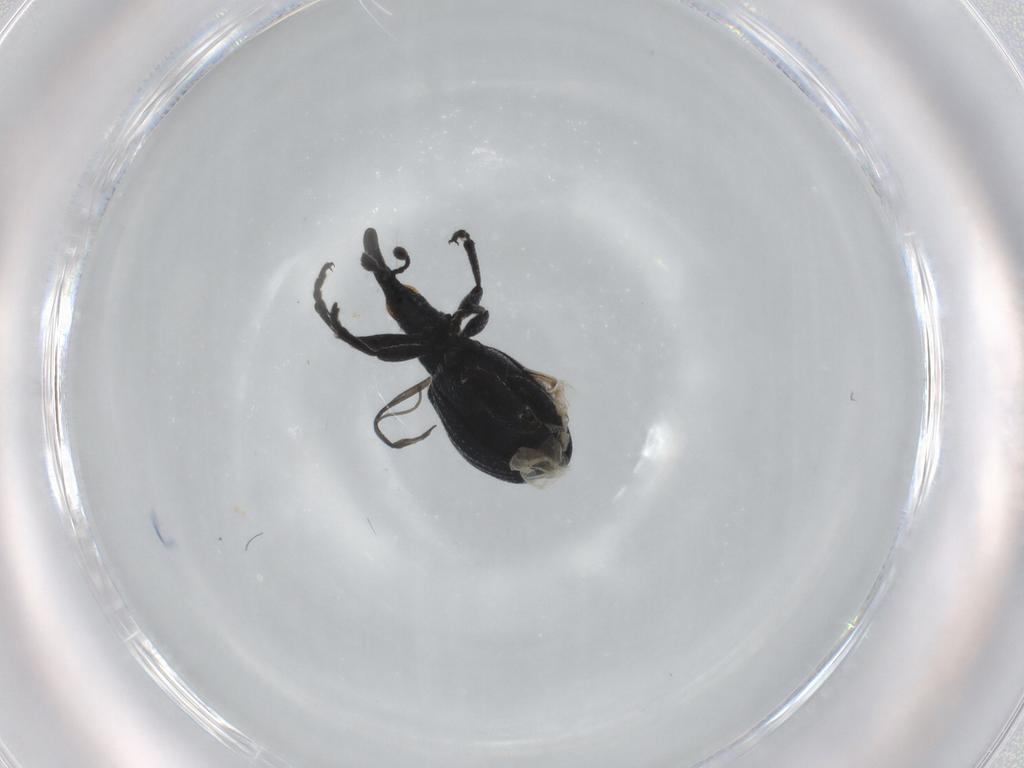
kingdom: Animalia
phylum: Arthropoda
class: Insecta
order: Coleoptera
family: Brentidae
